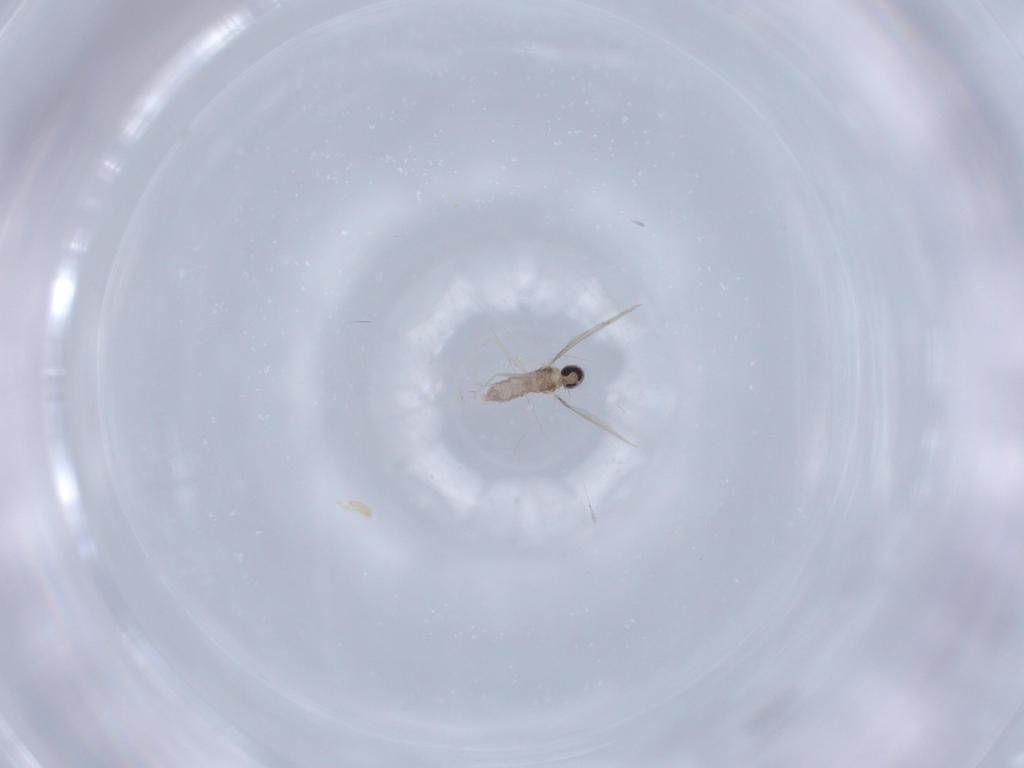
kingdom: Animalia
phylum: Arthropoda
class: Insecta
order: Diptera
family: Cecidomyiidae
